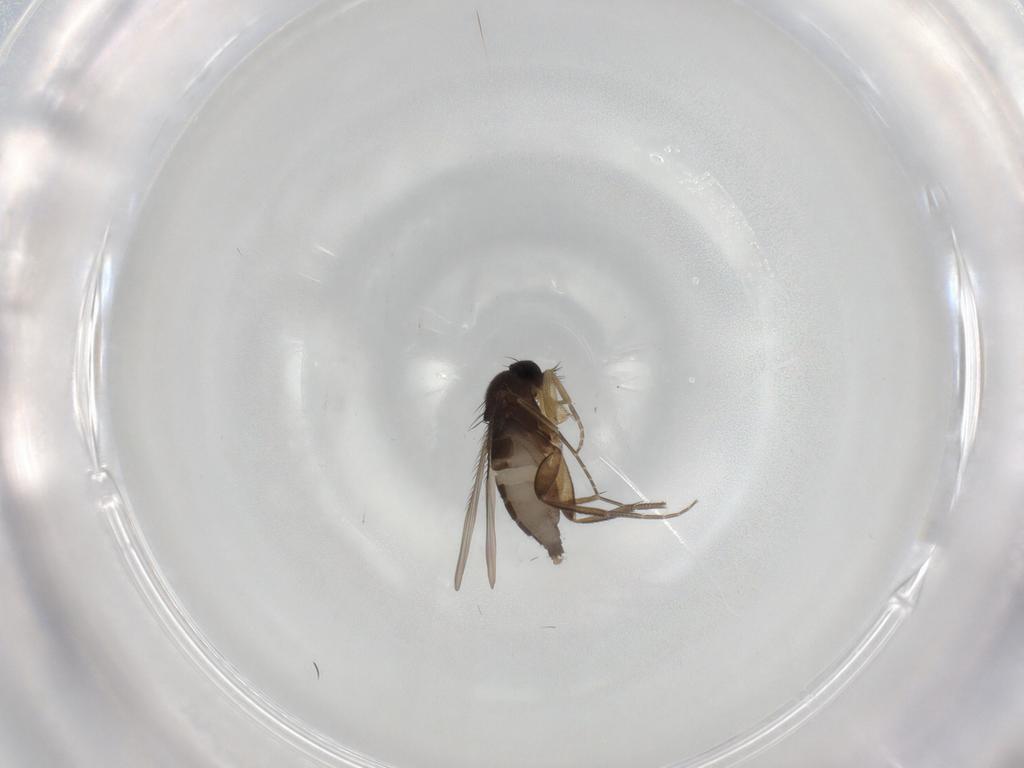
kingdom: Animalia
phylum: Arthropoda
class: Insecta
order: Diptera
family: Phoridae
